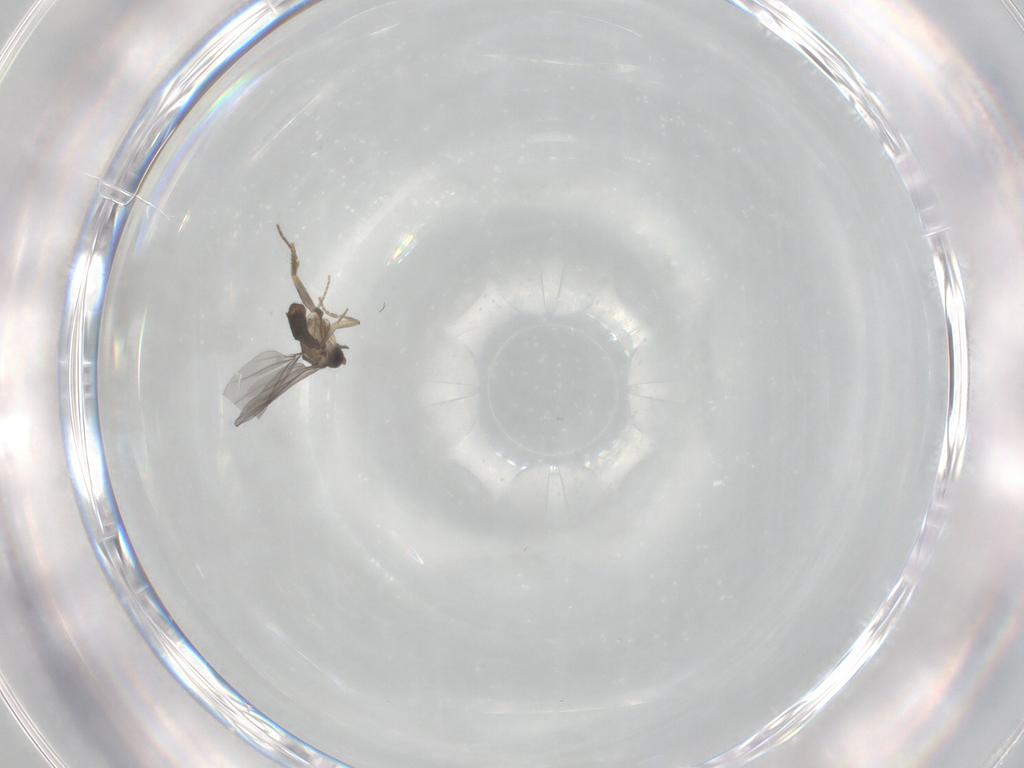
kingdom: Animalia
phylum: Arthropoda
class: Insecta
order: Diptera
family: Cecidomyiidae
